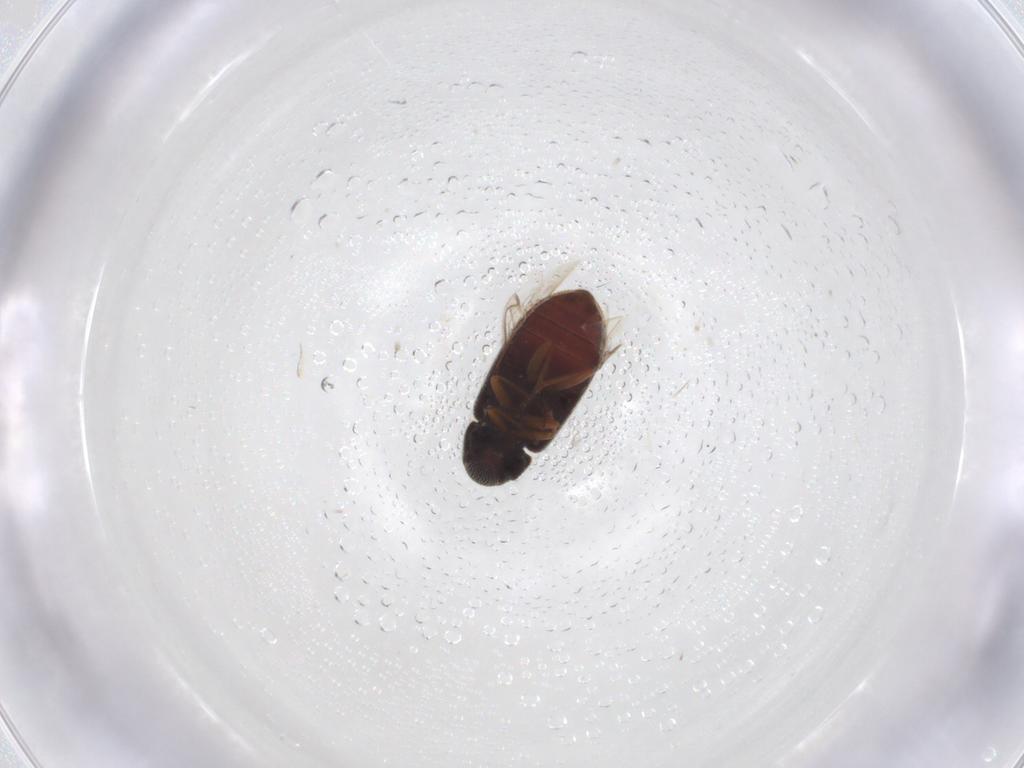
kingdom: Animalia
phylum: Arthropoda
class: Insecta
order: Coleoptera
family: Rhadalidae
